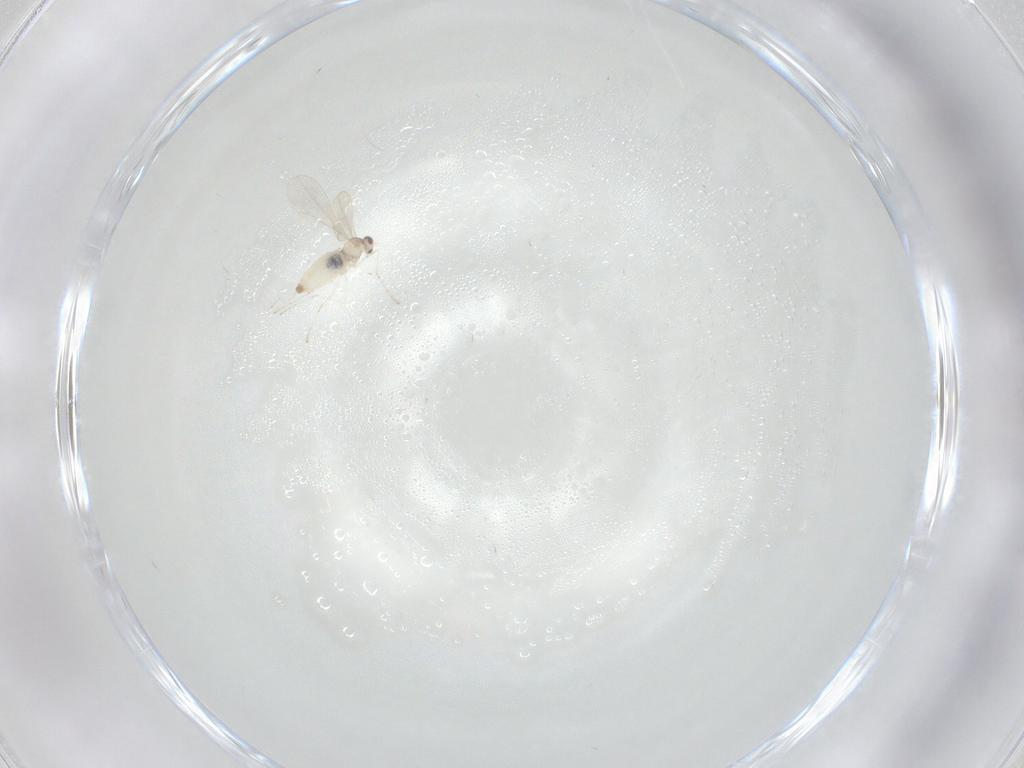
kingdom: Animalia
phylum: Arthropoda
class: Insecta
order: Diptera
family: Cecidomyiidae
